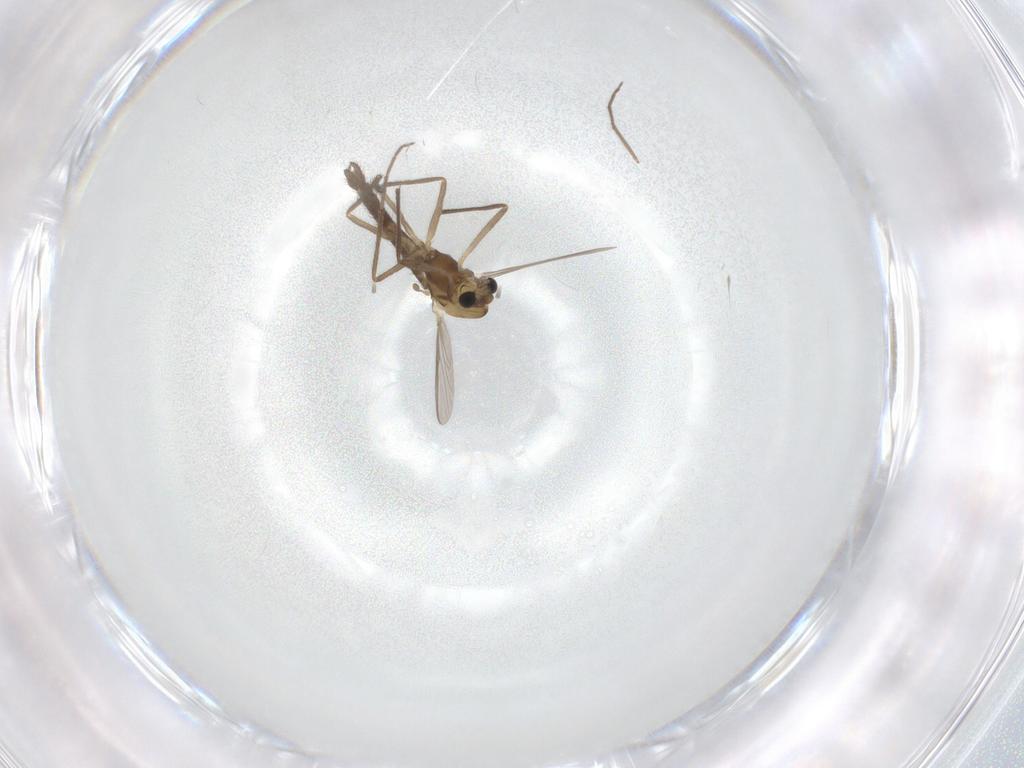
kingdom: Animalia
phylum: Arthropoda
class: Insecta
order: Diptera
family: Chironomidae
